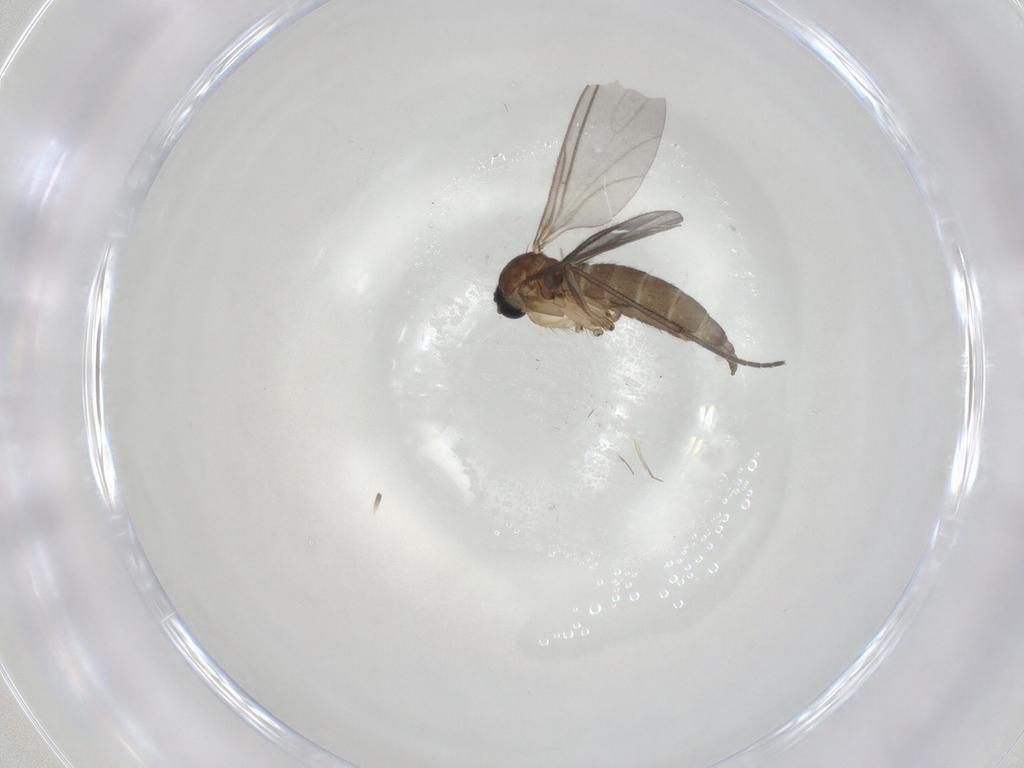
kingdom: Animalia
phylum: Arthropoda
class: Insecta
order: Diptera
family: Sciaridae
